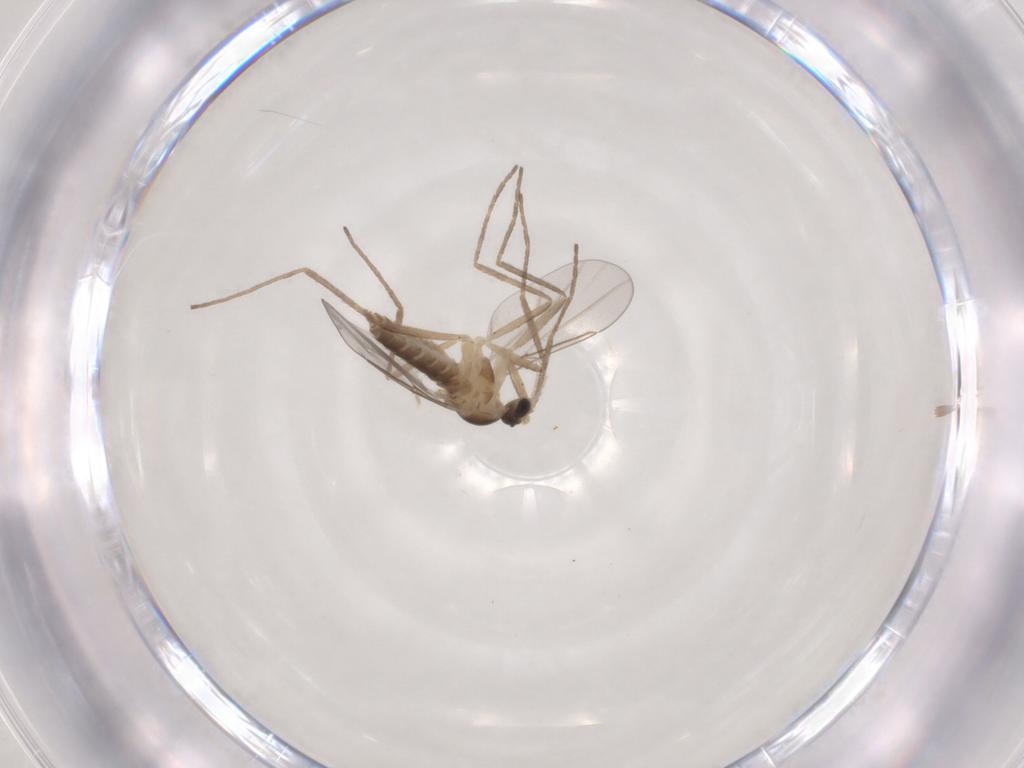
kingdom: Animalia
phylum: Arthropoda
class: Insecta
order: Diptera
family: Cecidomyiidae
